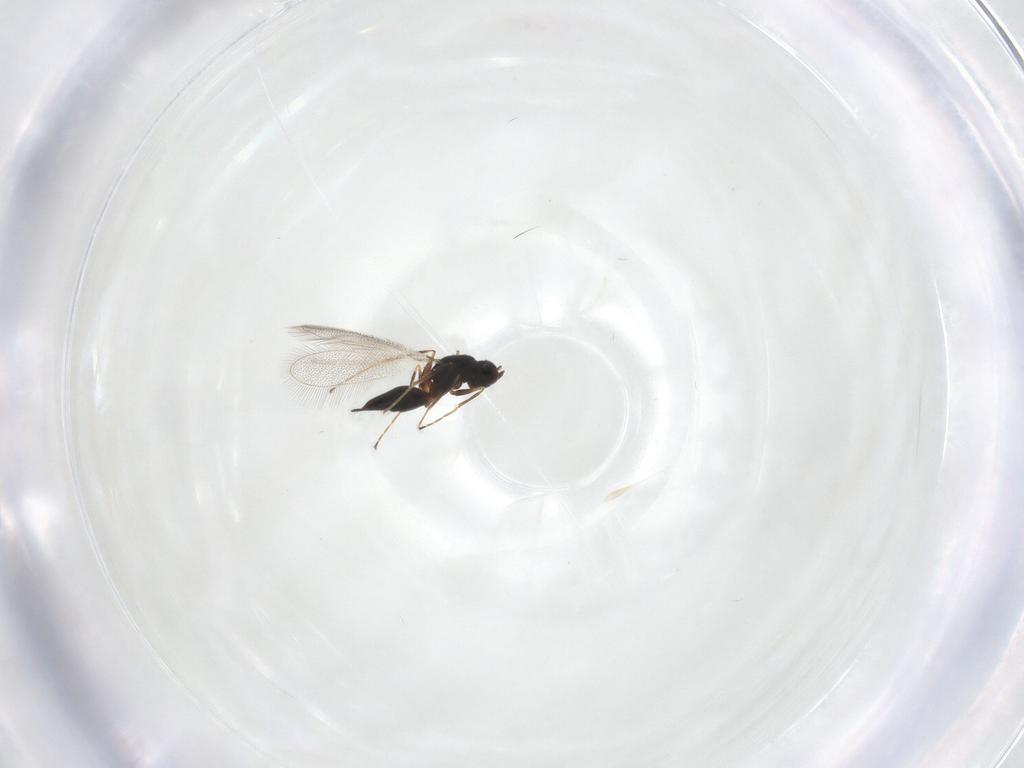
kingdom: Animalia
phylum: Arthropoda
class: Insecta
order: Hymenoptera
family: Mymaridae
